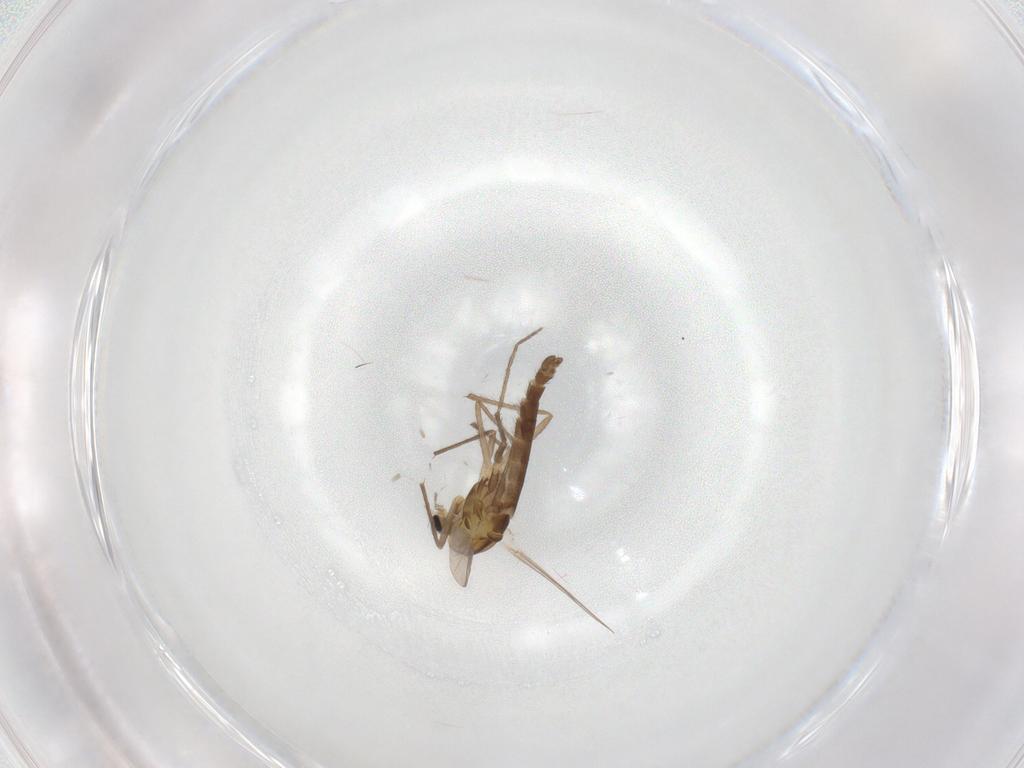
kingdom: Animalia
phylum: Arthropoda
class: Insecta
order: Diptera
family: Chironomidae
